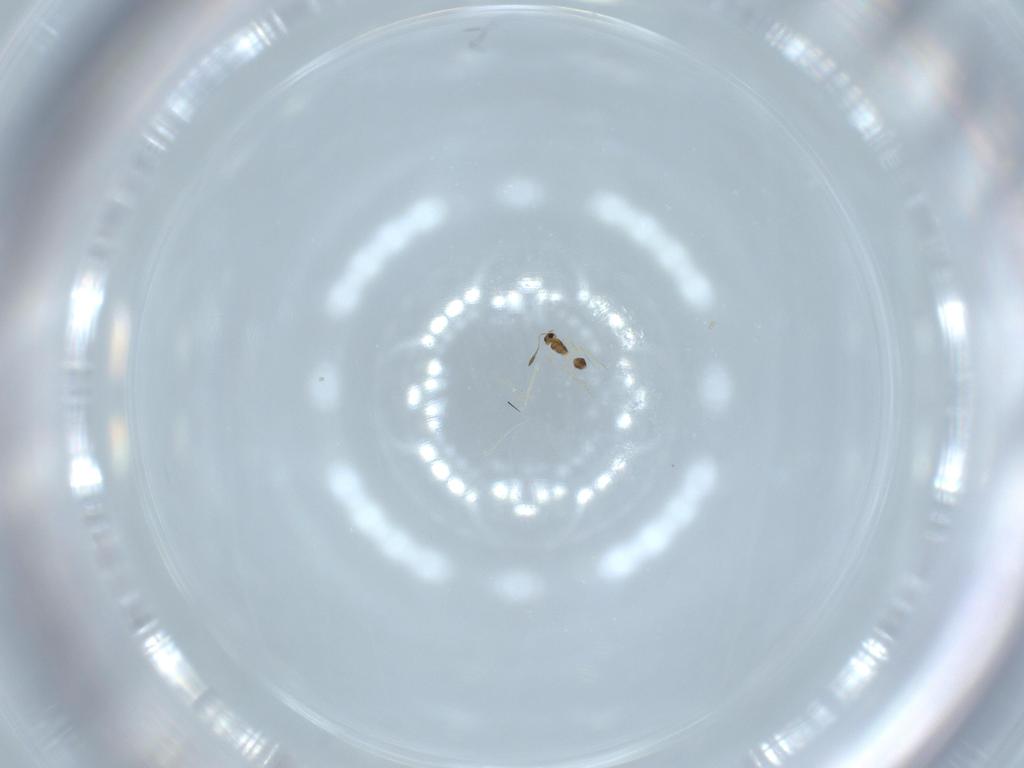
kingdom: Animalia
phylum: Arthropoda
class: Insecta
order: Hymenoptera
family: Mymarommatidae
